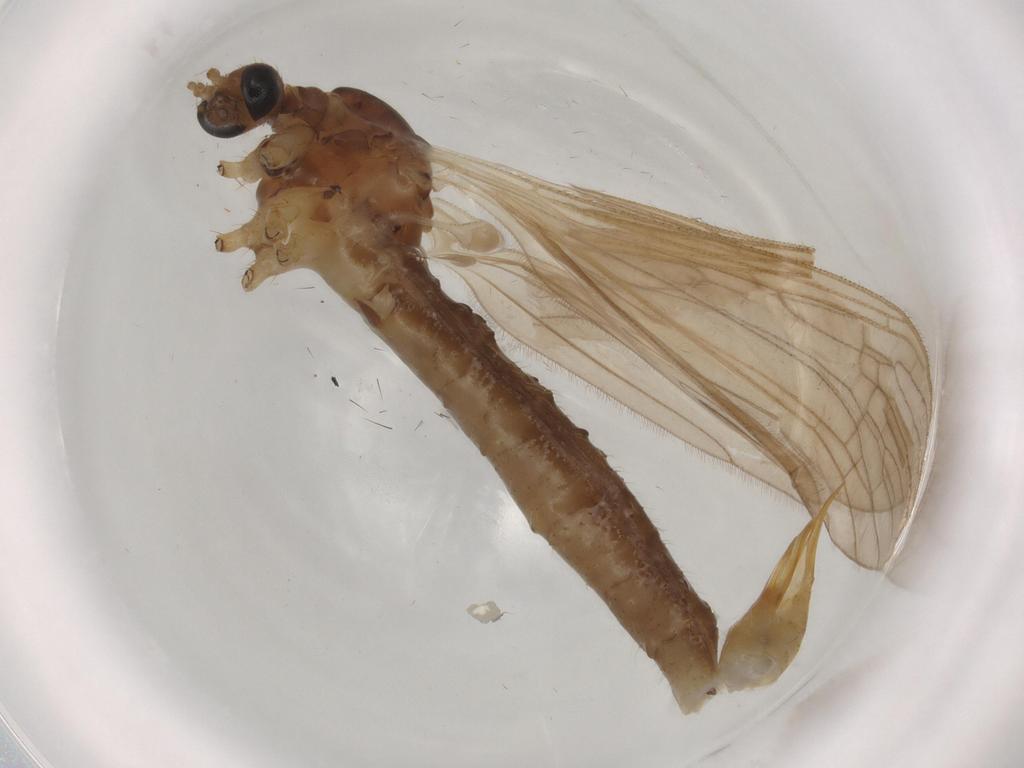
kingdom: Animalia
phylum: Arthropoda
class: Insecta
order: Diptera
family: Limoniidae
